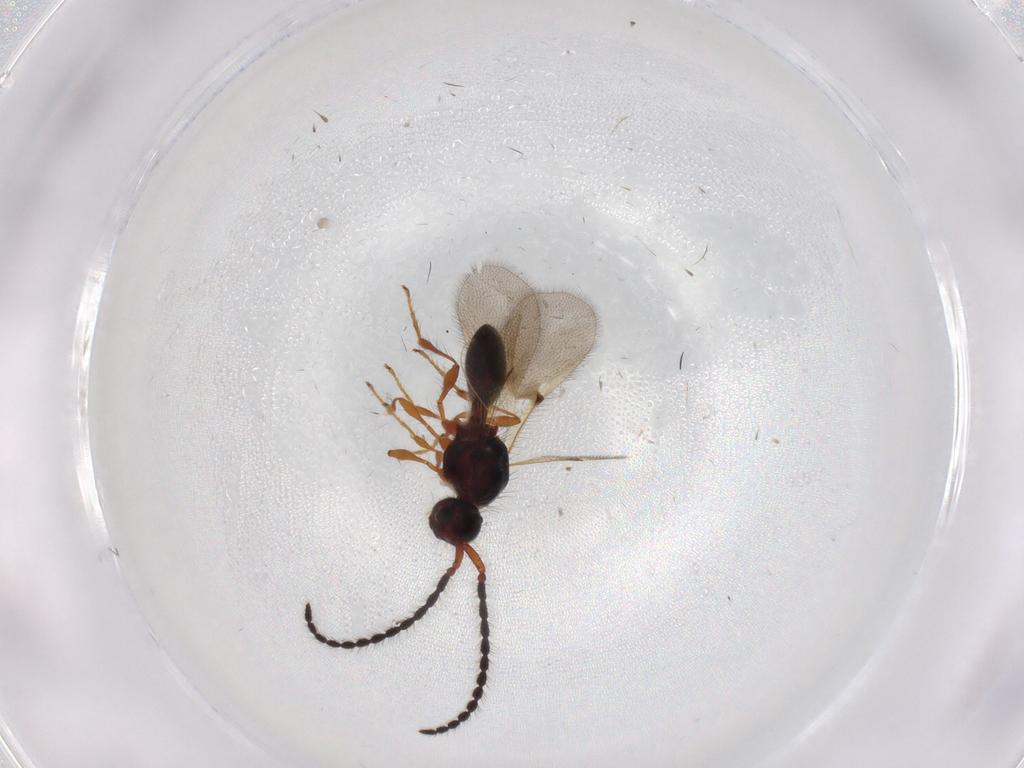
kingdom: Animalia
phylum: Arthropoda
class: Insecta
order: Hymenoptera
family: Diapriidae
